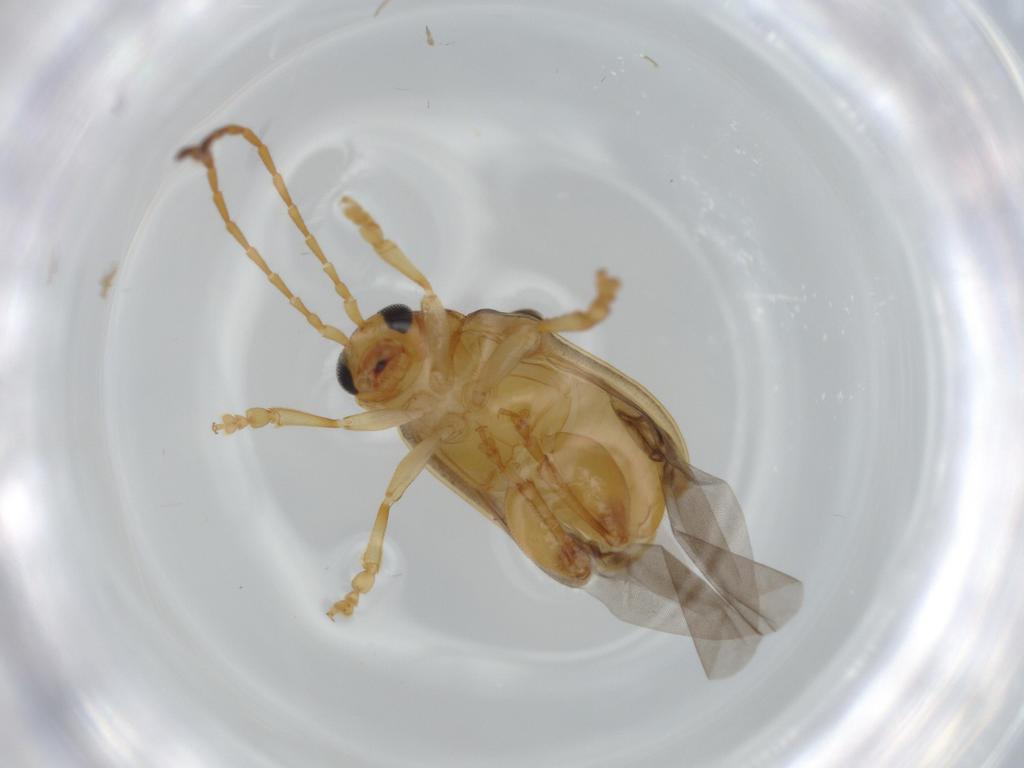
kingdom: Animalia
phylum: Arthropoda
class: Insecta
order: Coleoptera
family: Chrysomelidae
